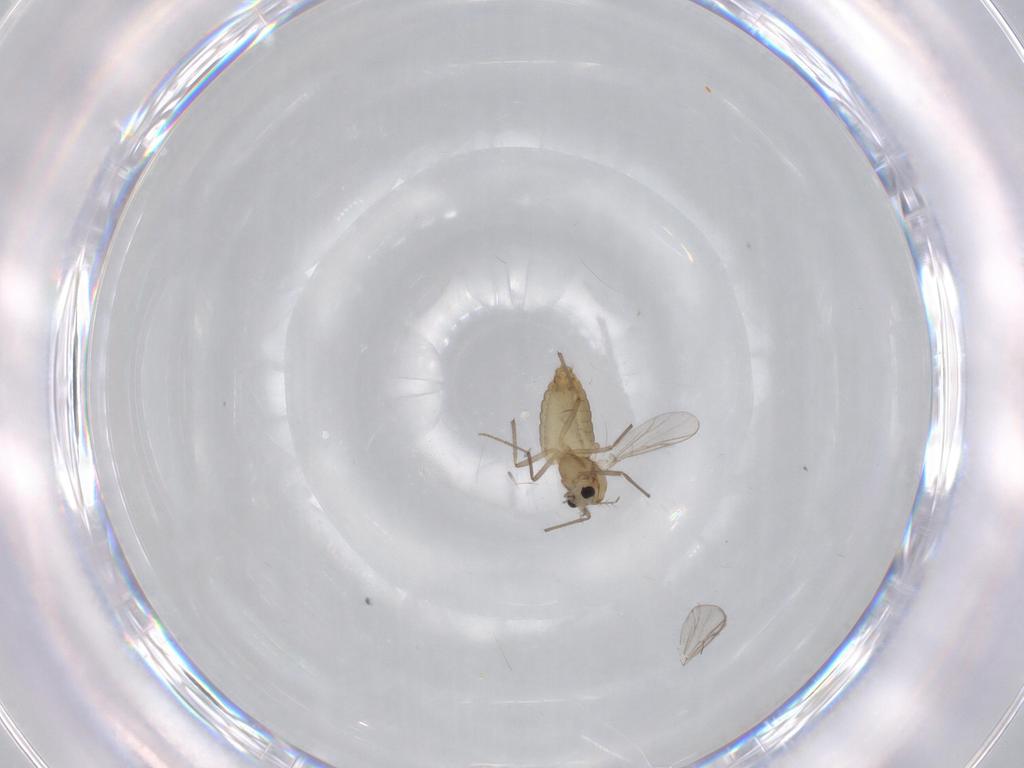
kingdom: Animalia
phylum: Arthropoda
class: Insecta
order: Diptera
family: Chironomidae
